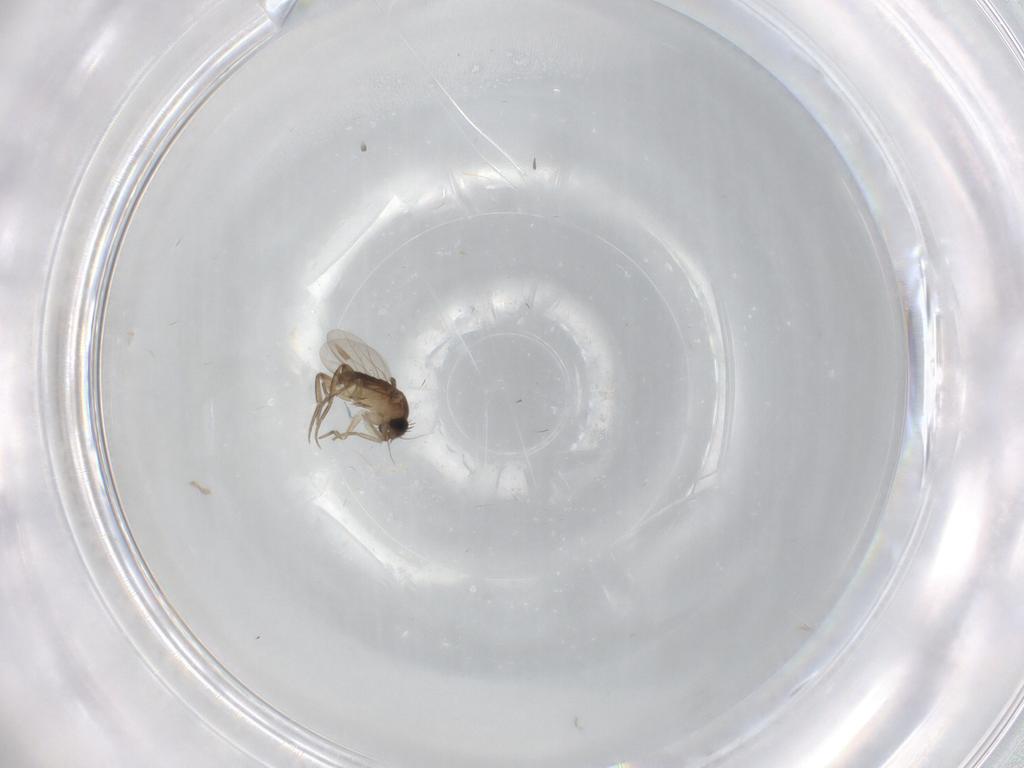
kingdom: Animalia
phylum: Arthropoda
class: Insecta
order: Diptera
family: Phoridae
